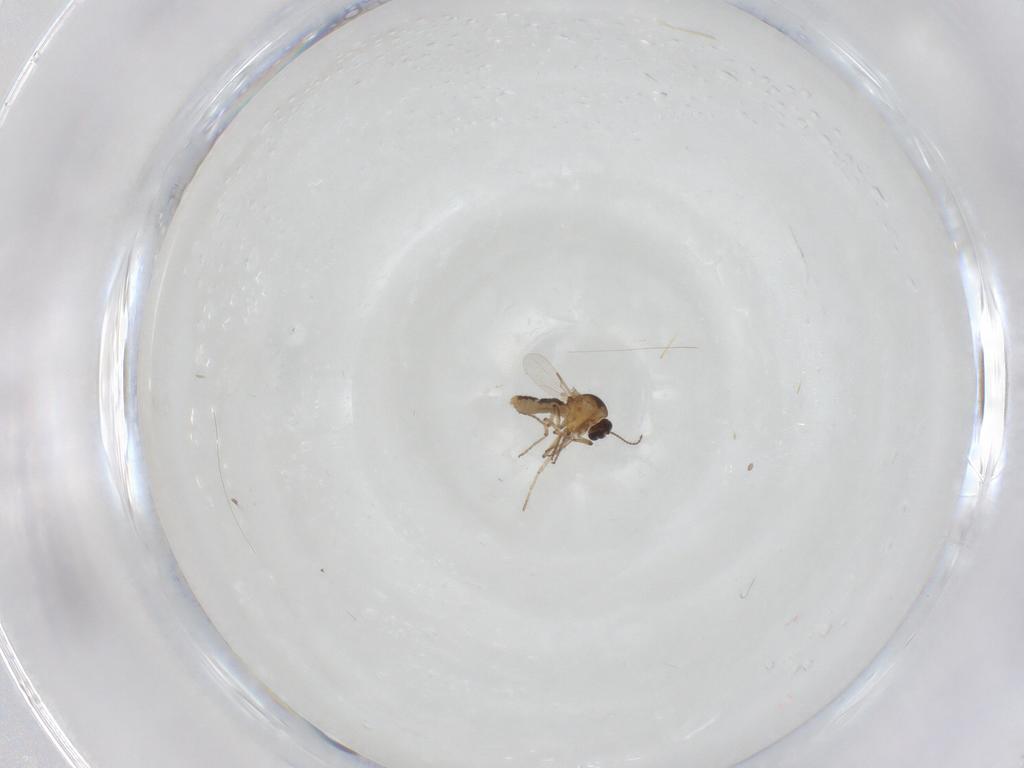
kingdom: Animalia
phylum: Arthropoda
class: Insecta
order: Diptera
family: Ceratopogonidae
